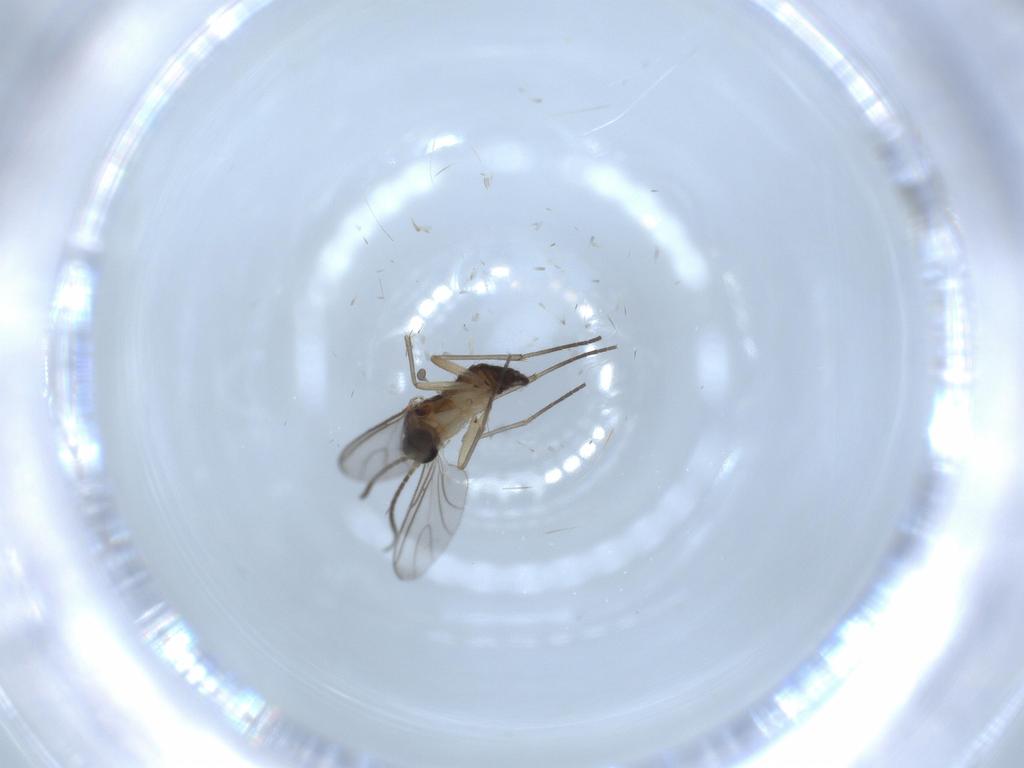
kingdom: Animalia
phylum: Arthropoda
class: Insecta
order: Diptera
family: Sciaridae
